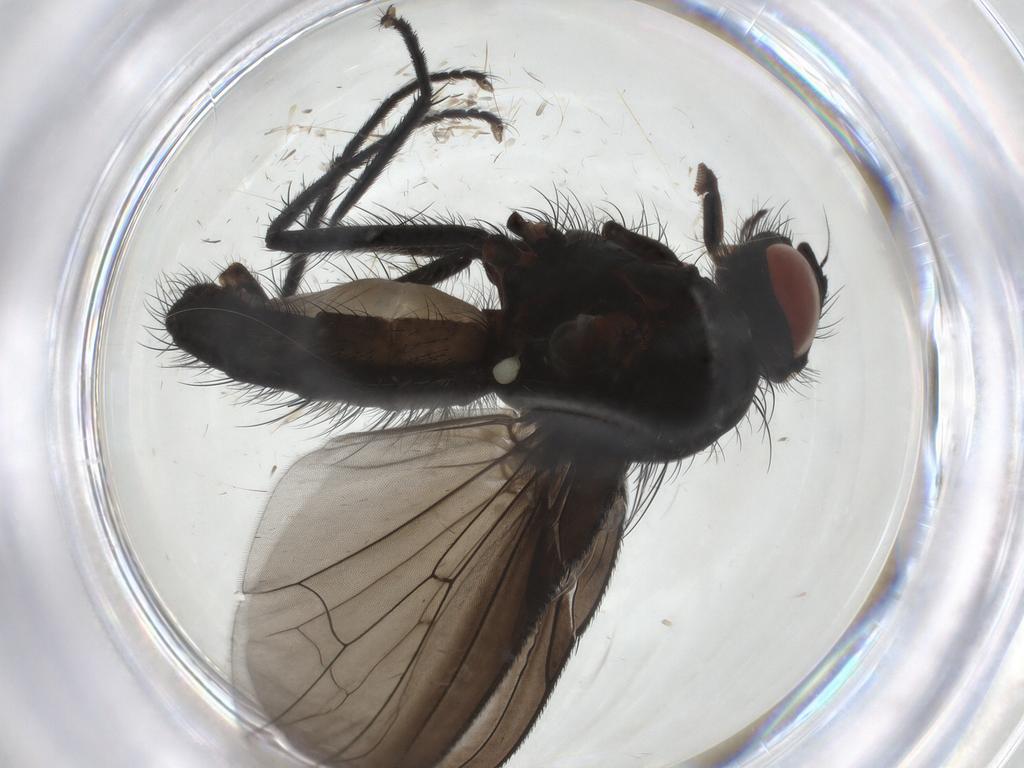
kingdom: Animalia
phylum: Arthropoda
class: Insecta
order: Diptera
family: Anthomyiidae
